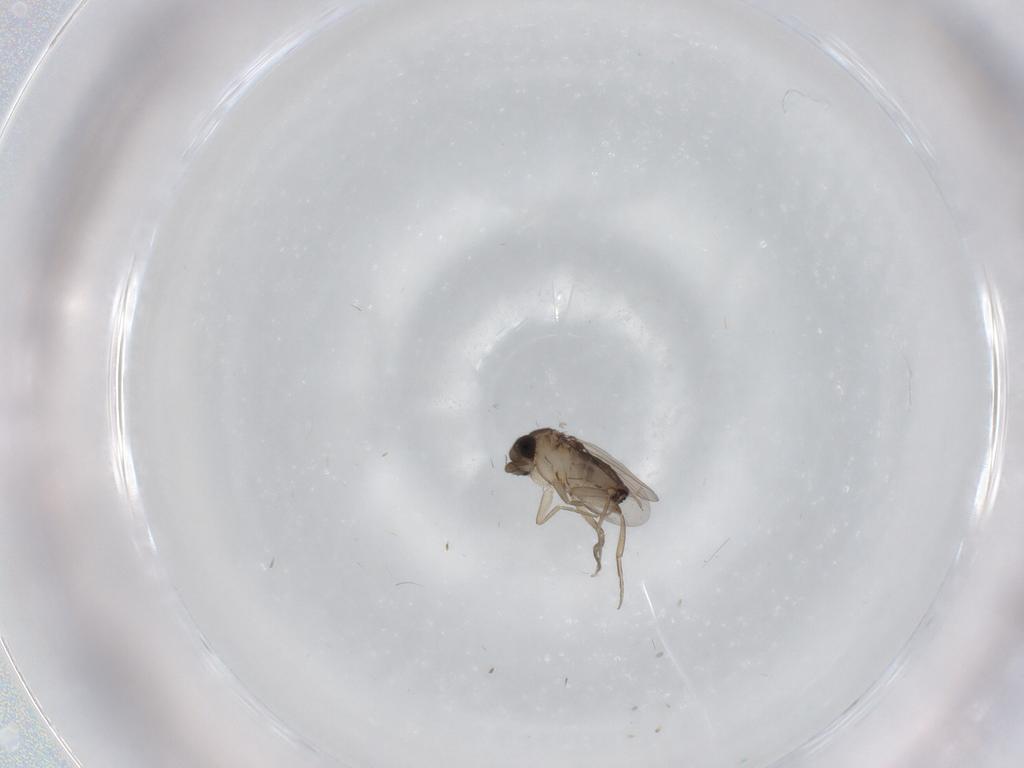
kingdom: Animalia
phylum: Arthropoda
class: Insecta
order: Diptera
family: Phoridae
